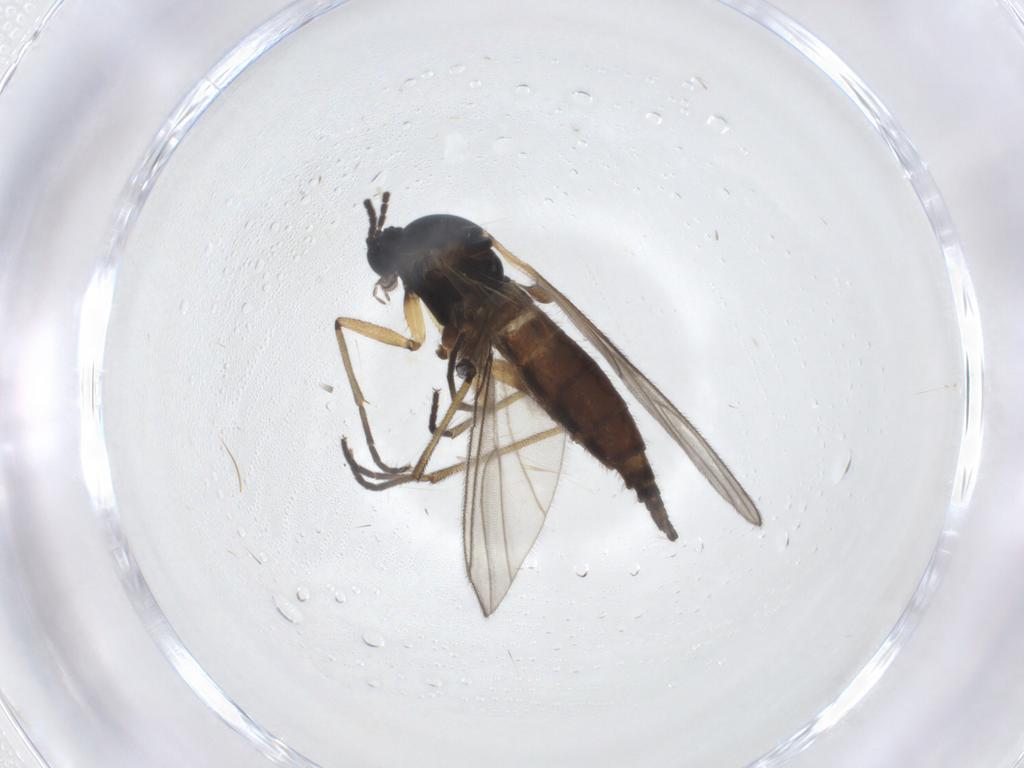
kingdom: Animalia
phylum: Arthropoda
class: Insecta
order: Diptera
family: Sciaridae
